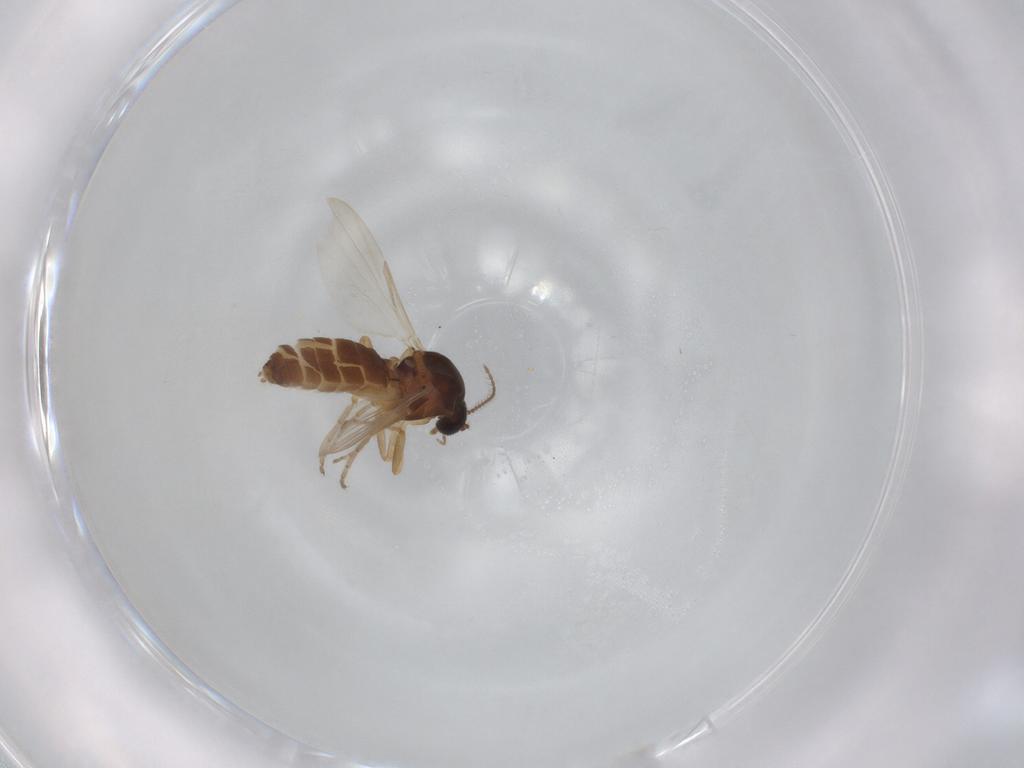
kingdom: Animalia
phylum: Arthropoda
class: Insecta
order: Diptera
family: Ceratopogonidae
